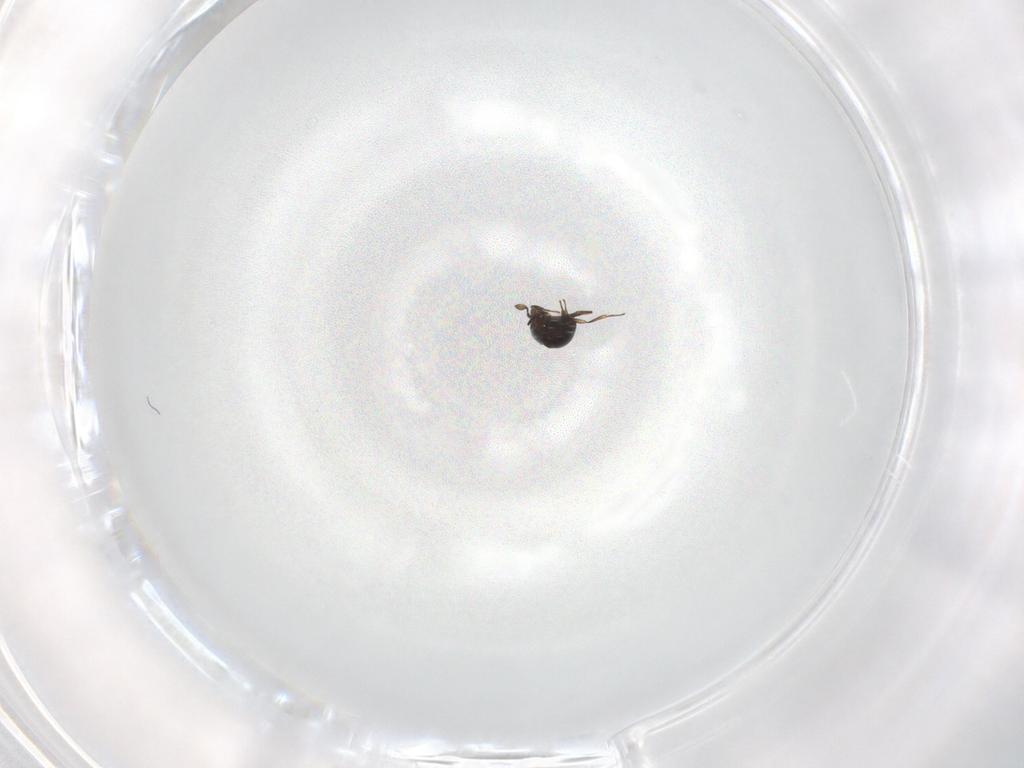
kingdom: Animalia
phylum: Arthropoda
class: Insecta
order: Hymenoptera
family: Scelionidae
